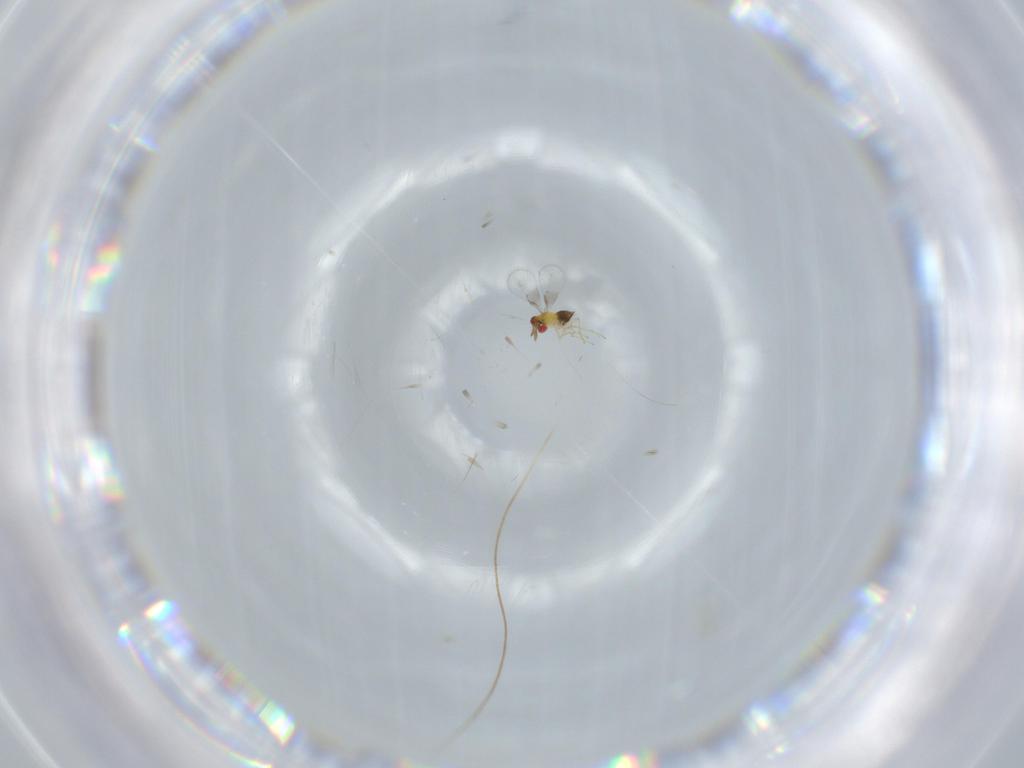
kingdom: Animalia
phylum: Arthropoda
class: Insecta
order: Hymenoptera
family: Trichogrammatidae
